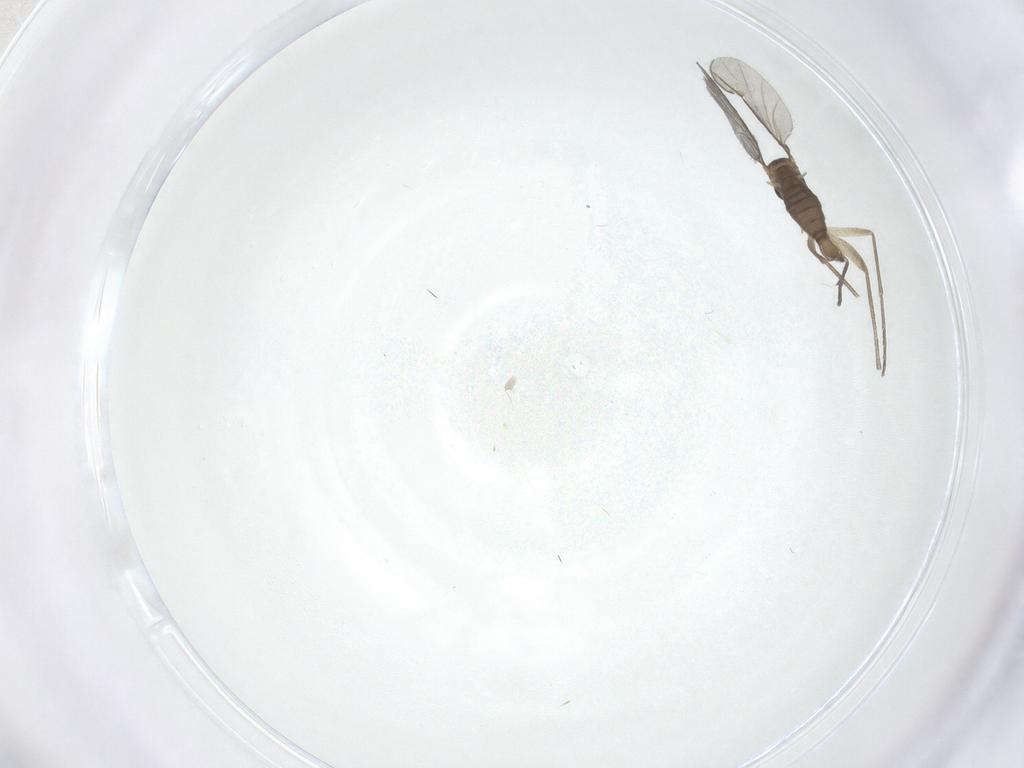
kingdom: Animalia
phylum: Arthropoda
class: Insecta
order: Diptera
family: Sciaridae
